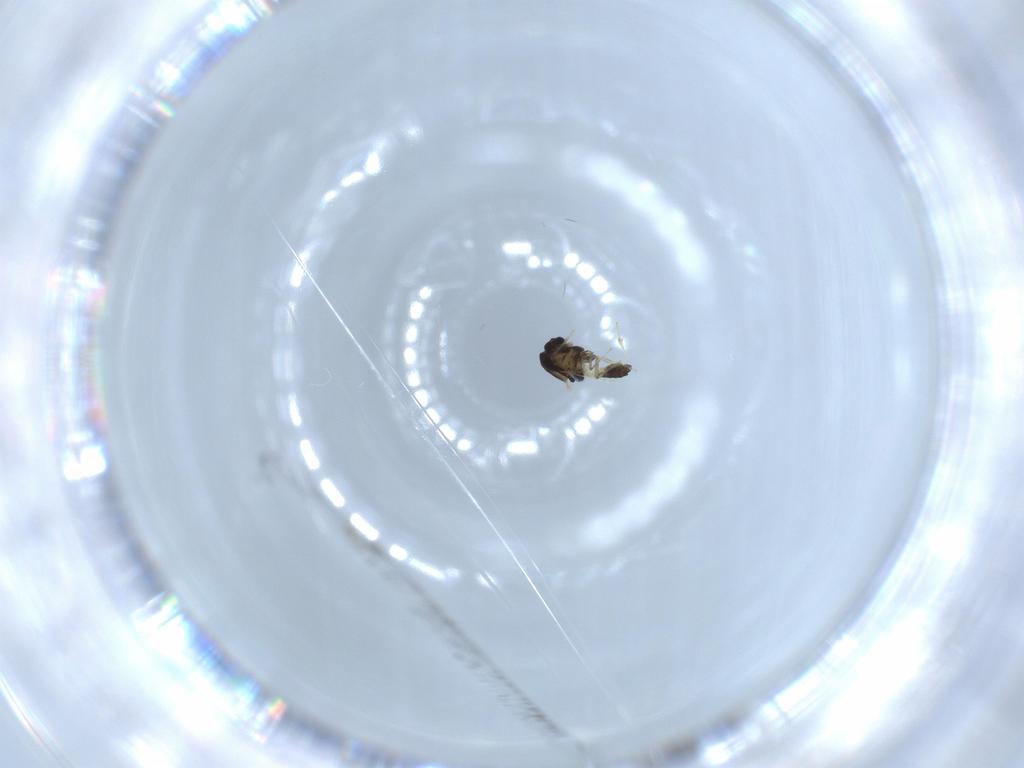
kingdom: Animalia
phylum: Arthropoda
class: Insecta
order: Diptera
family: Chironomidae
